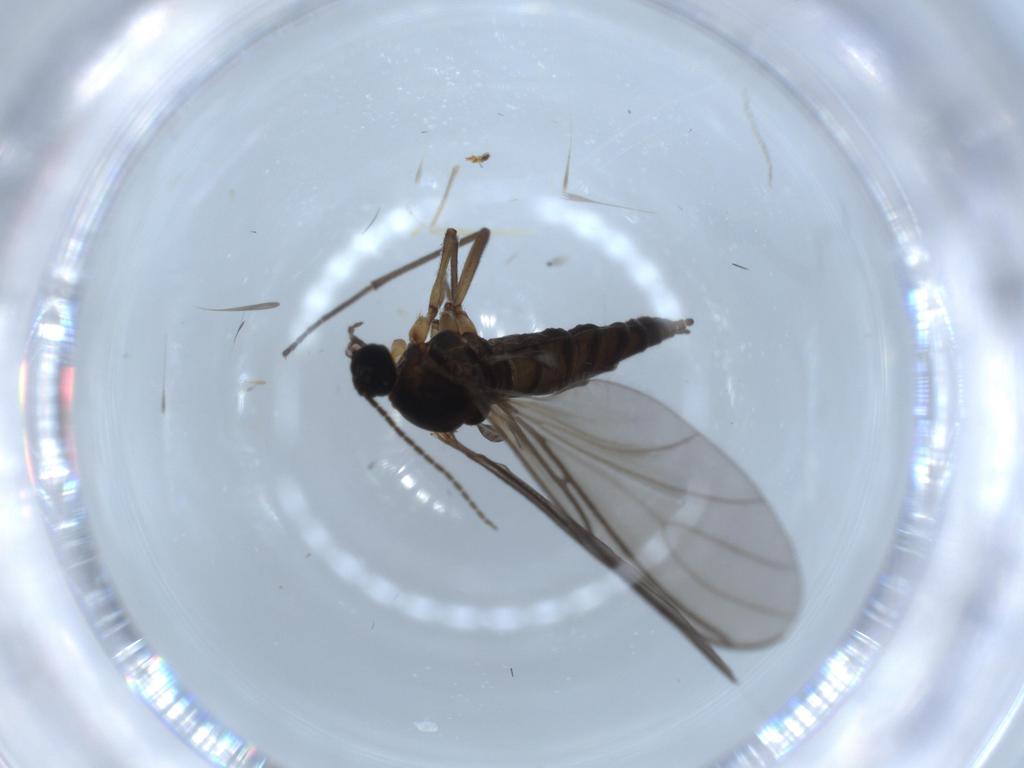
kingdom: Animalia
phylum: Arthropoda
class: Insecta
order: Diptera
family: Sciaridae
